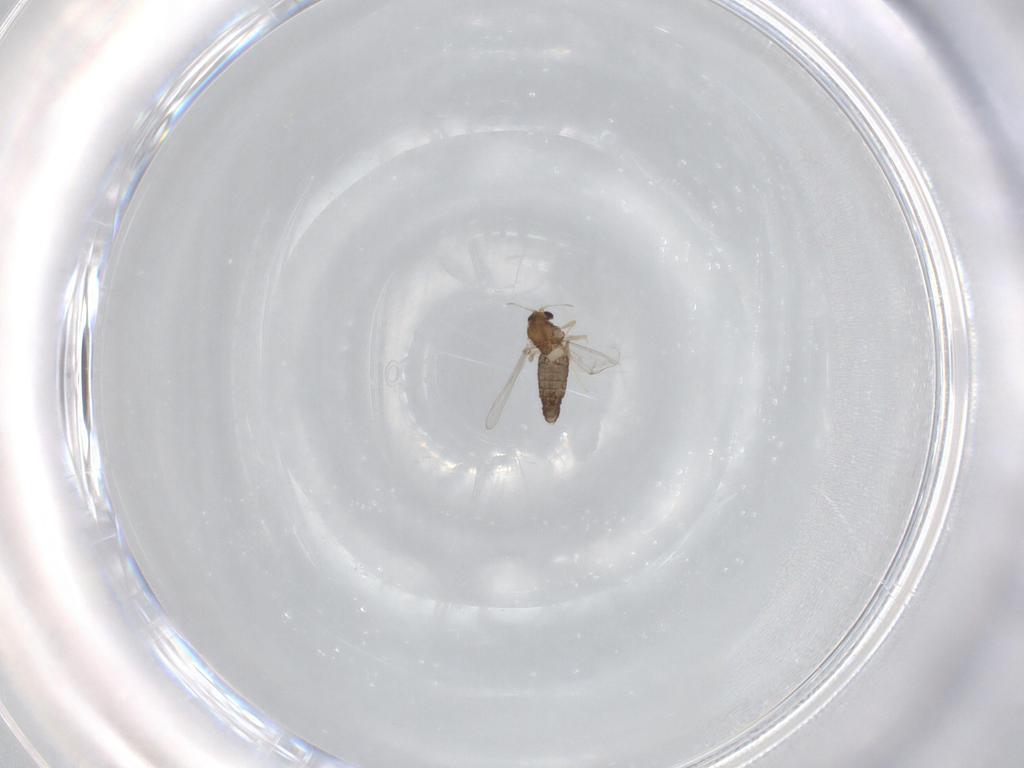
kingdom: Animalia
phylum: Arthropoda
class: Insecta
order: Diptera
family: Chironomidae
